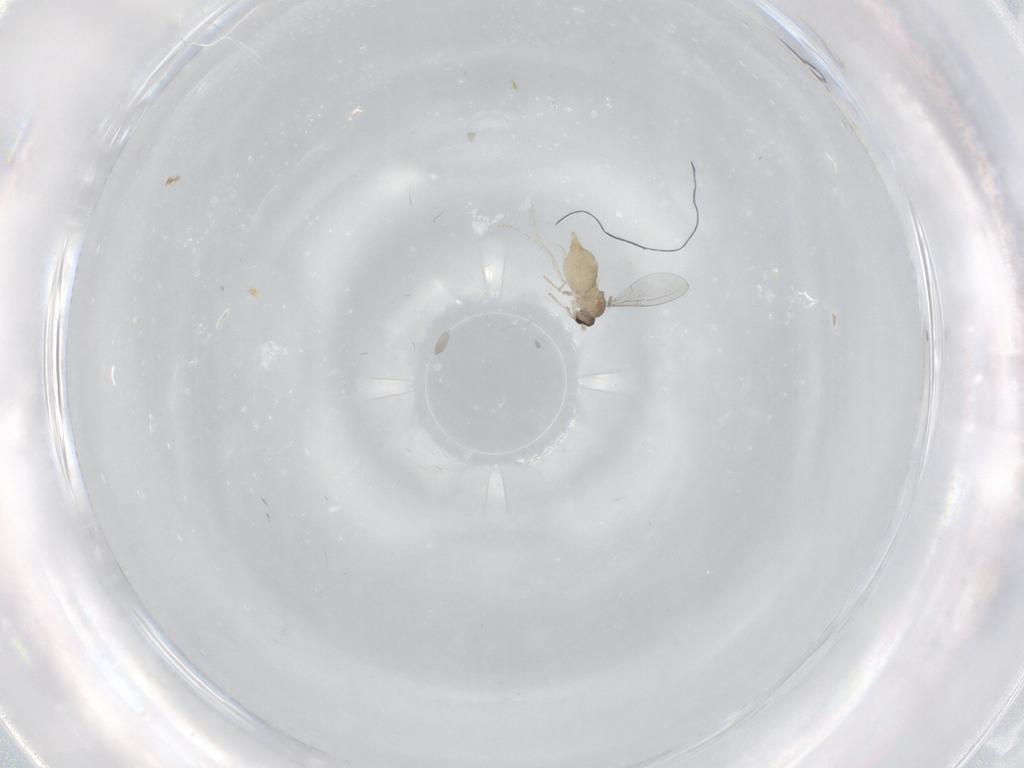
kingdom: Animalia
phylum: Arthropoda
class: Insecta
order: Diptera
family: Cecidomyiidae
